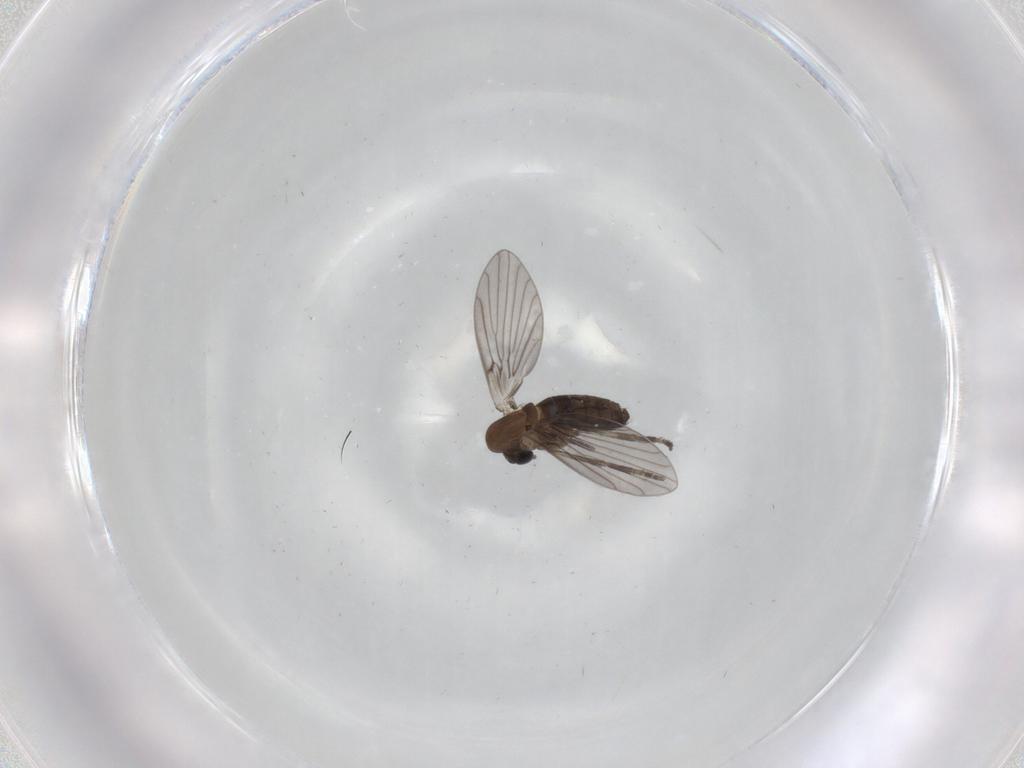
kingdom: Animalia
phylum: Arthropoda
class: Insecta
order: Diptera
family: Psychodidae
